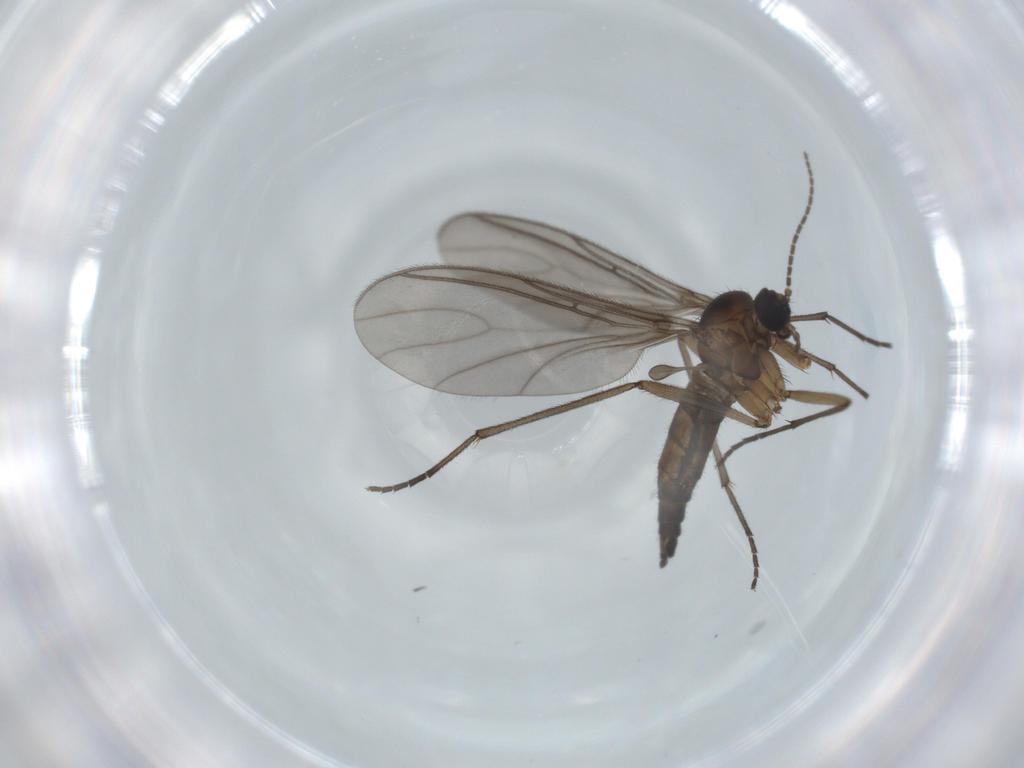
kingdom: Animalia
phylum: Arthropoda
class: Insecta
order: Diptera
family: Sciaridae
